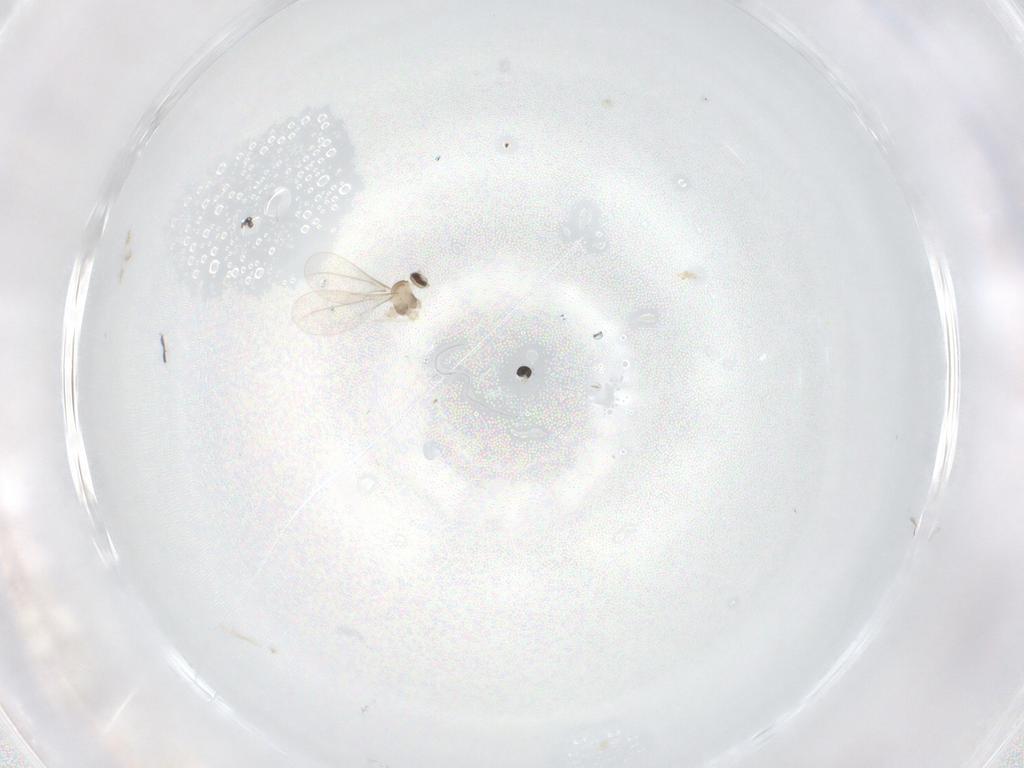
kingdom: Animalia
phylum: Arthropoda
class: Insecta
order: Diptera
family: Cecidomyiidae
